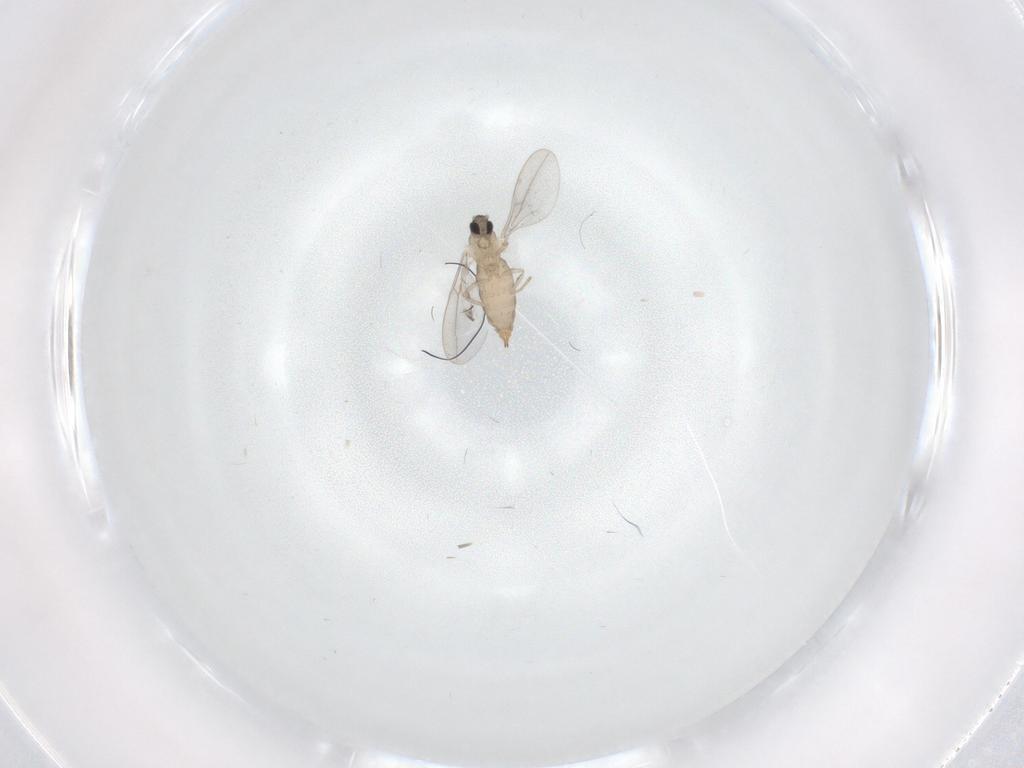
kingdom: Animalia
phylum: Arthropoda
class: Insecta
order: Diptera
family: Cecidomyiidae
